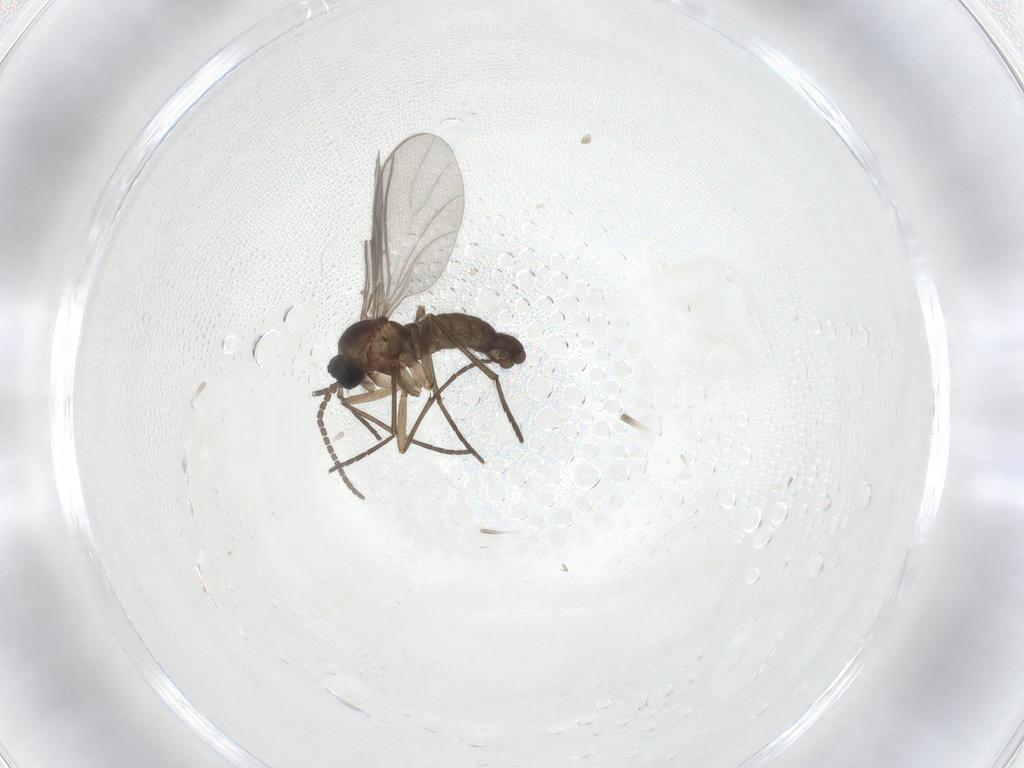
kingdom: Animalia
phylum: Arthropoda
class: Insecta
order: Diptera
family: Sciaridae
